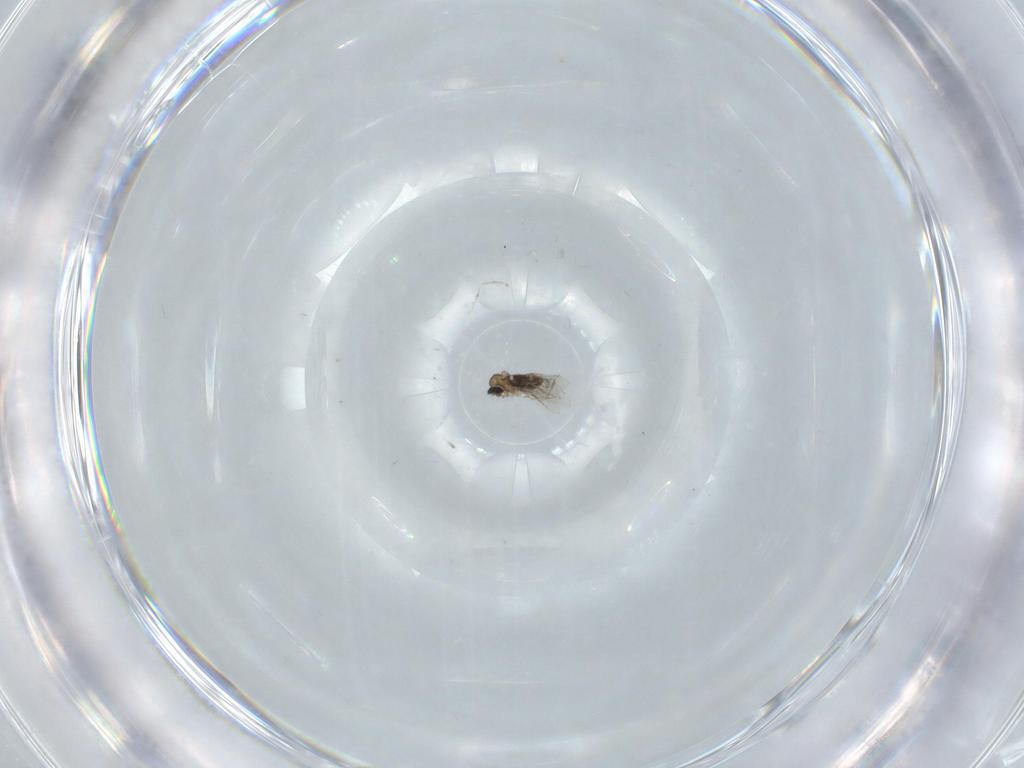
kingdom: Animalia
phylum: Arthropoda
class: Insecta
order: Diptera
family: Cecidomyiidae
